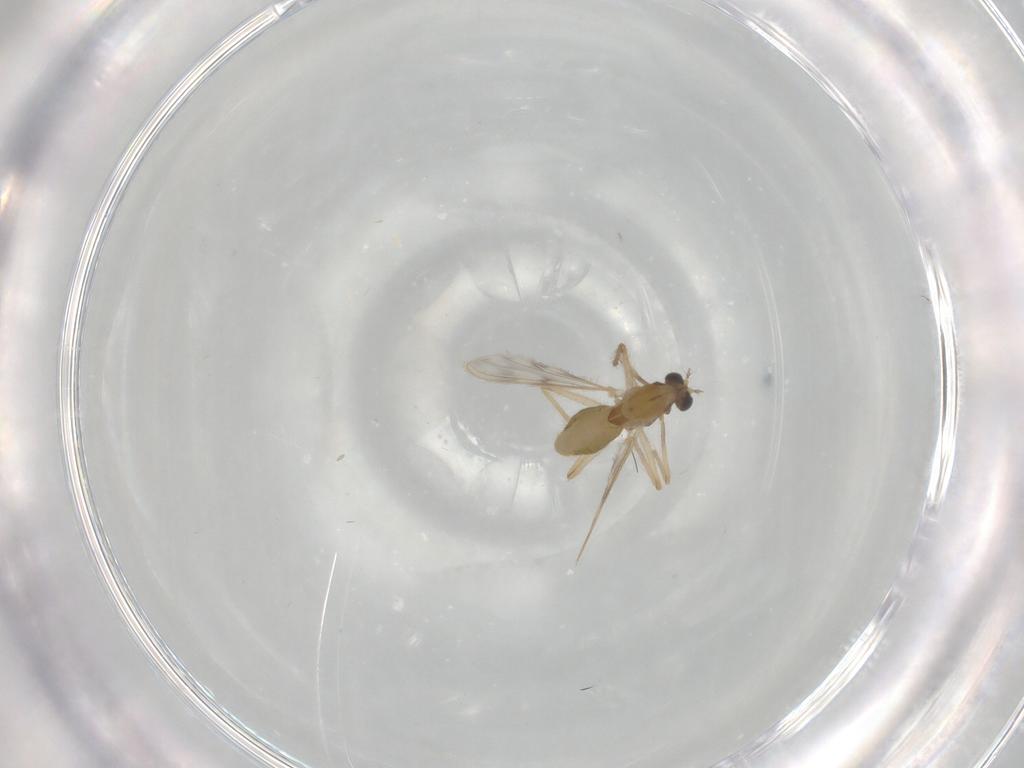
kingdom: Animalia
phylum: Arthropoda
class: Insecta
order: Diptera
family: Chironomidae
